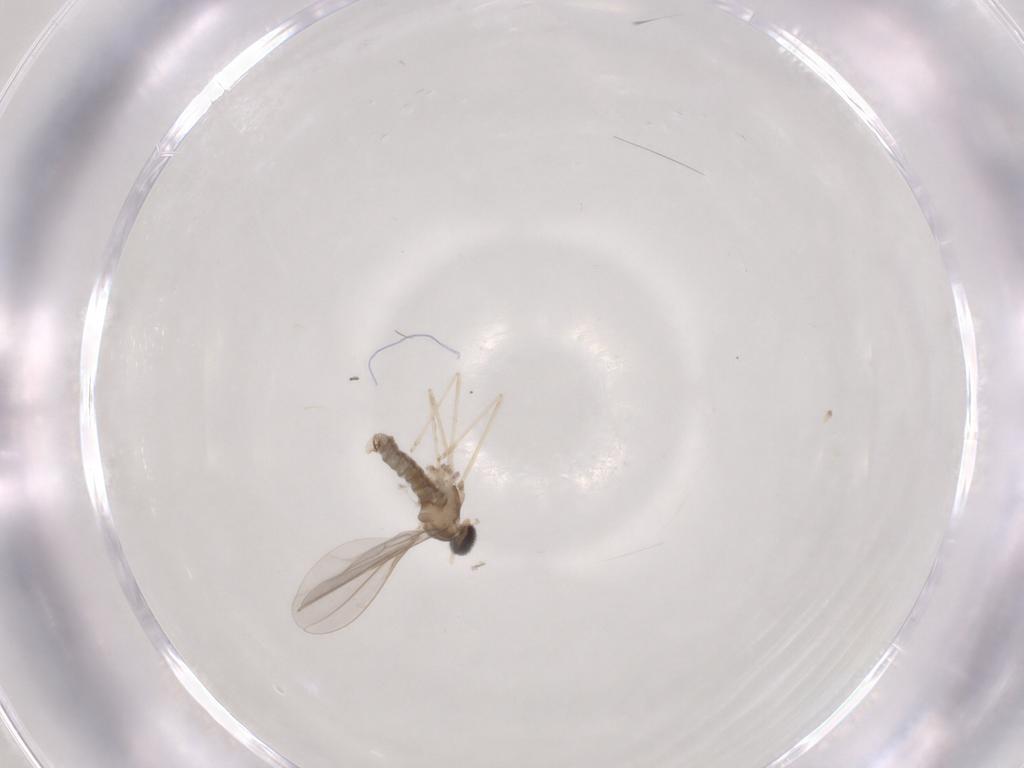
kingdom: Animalia
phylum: Arthropoda
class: Insecta
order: Diptera
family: Cecidomyiidae
